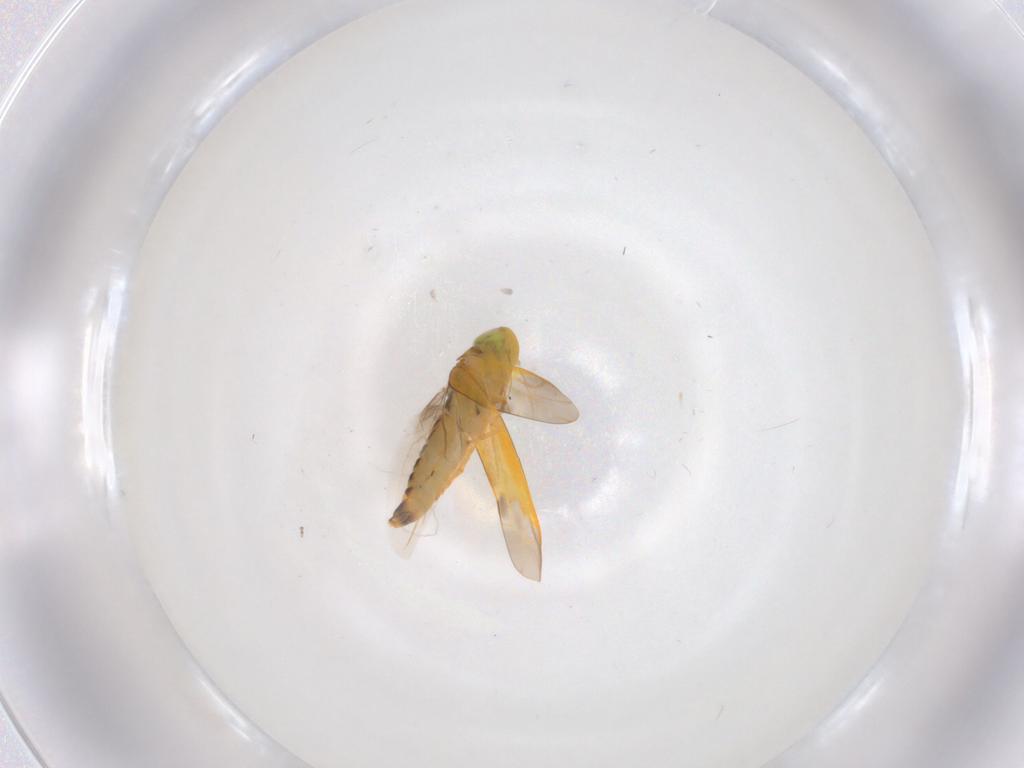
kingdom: Animalia
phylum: Arthropoda
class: Insecta
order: Hemiptera
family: Cicadellidae
